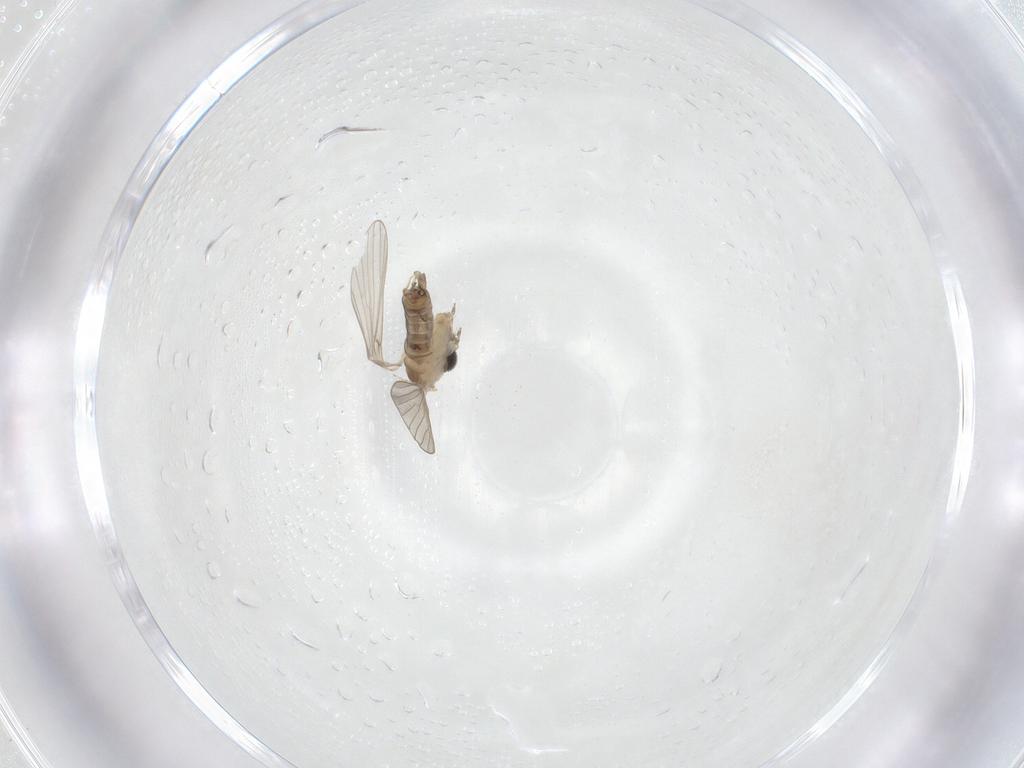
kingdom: Animalia
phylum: Arthropoda
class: Insecta
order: Diptera
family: Psychodidae
